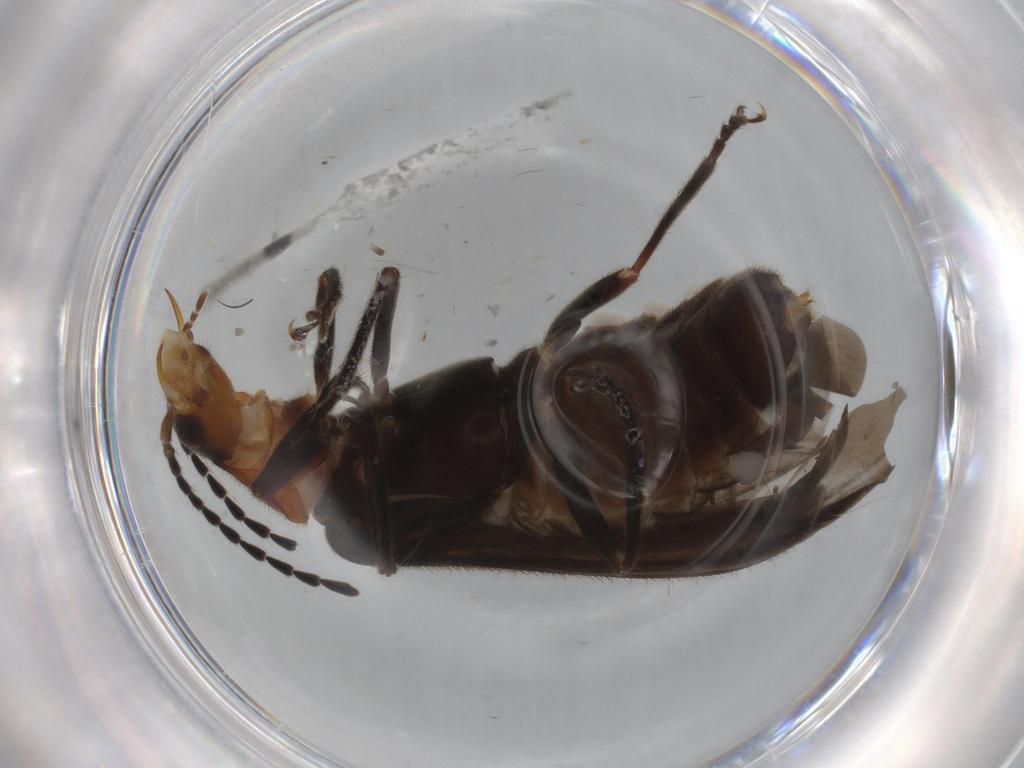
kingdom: Animalia
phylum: Arthropoda
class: Insecta
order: Coleoptera
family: Cantharidae
